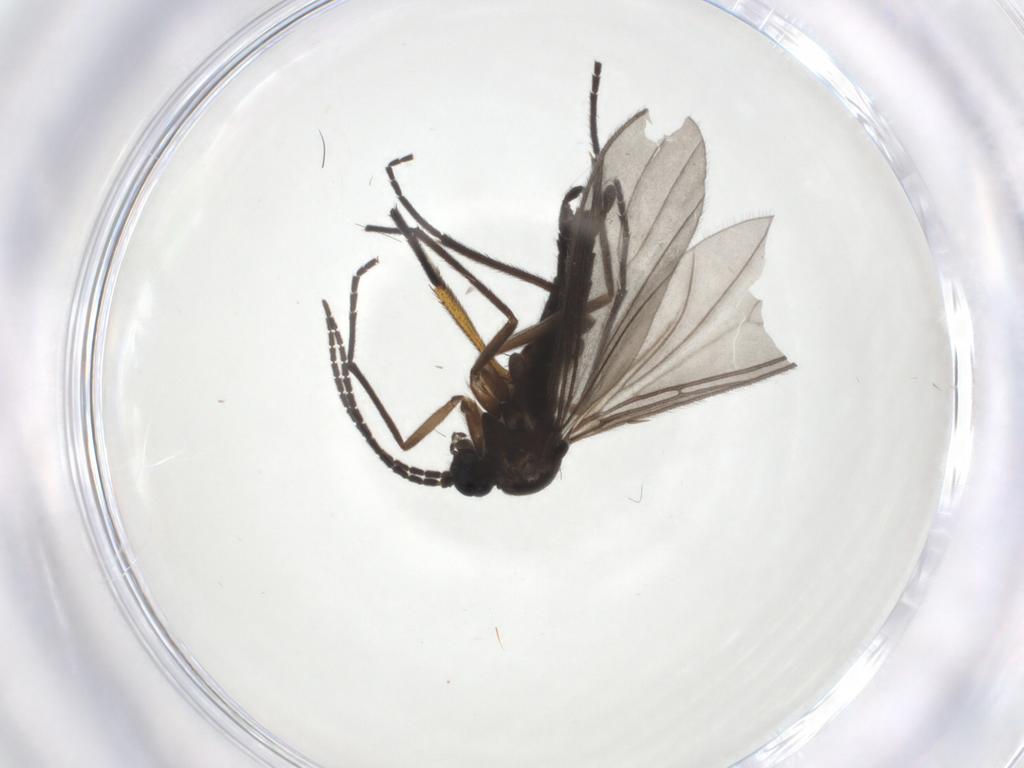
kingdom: Animalia
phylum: Arthropoda
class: Insecta
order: Diptera
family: Sciaridae
